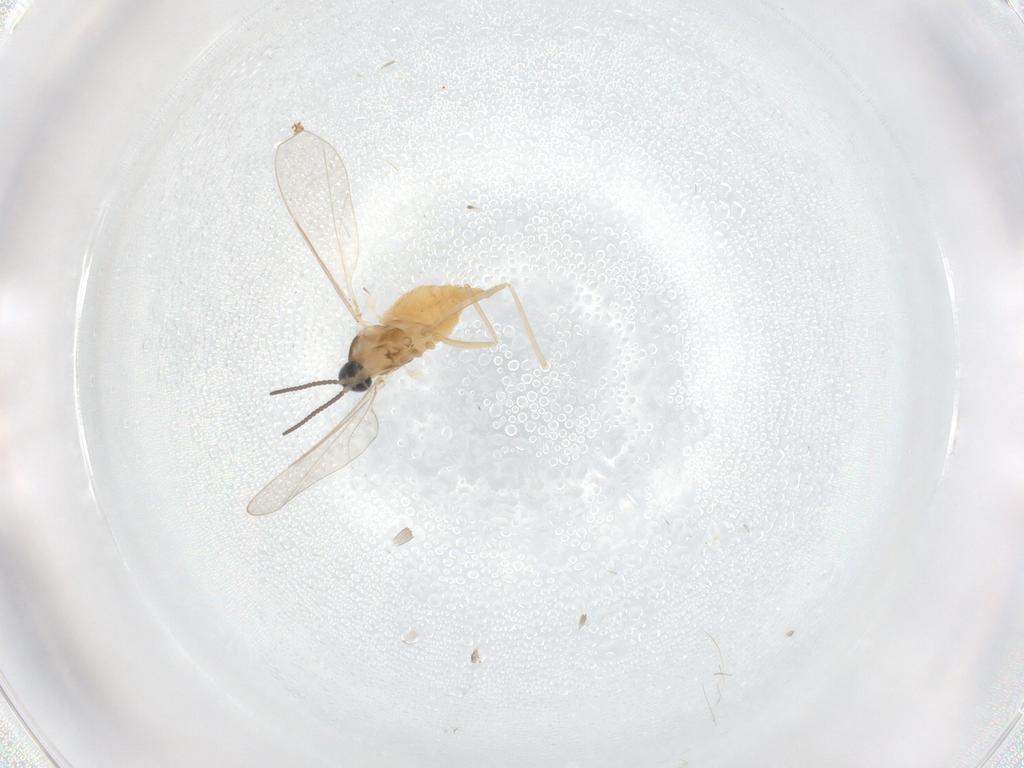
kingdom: Animalia
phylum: Arthropoda
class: Insecta
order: Diptera
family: Cecidomyiidae
